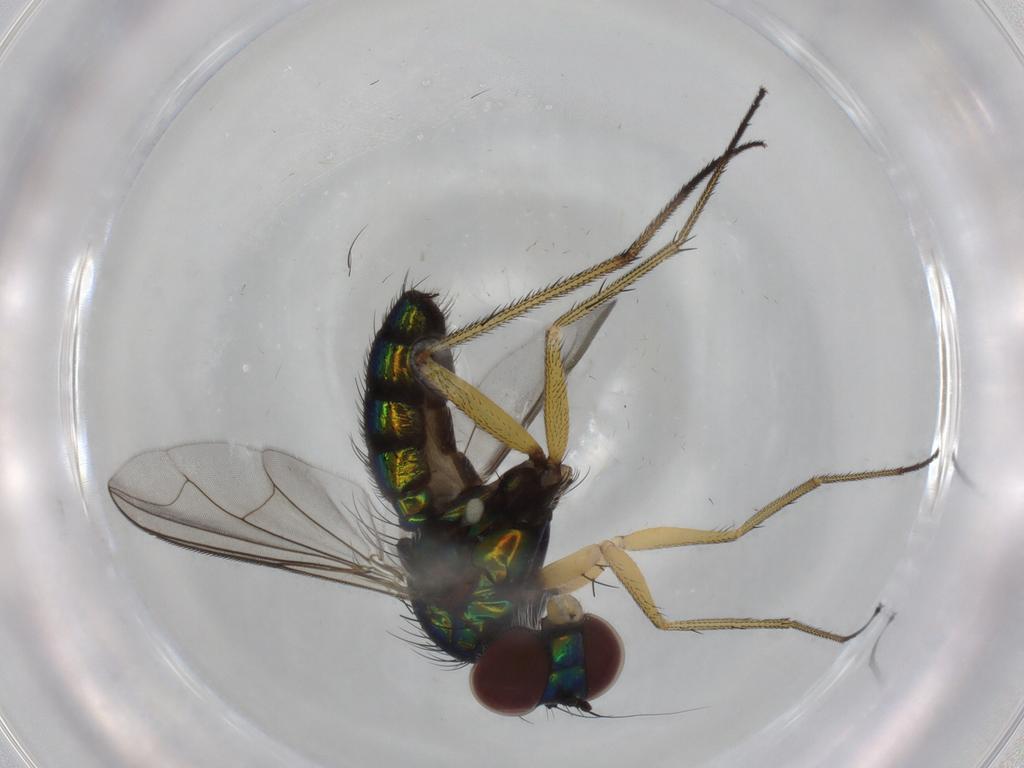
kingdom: Animalia
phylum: Arthropoda
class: Insecta
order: Diptera
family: Dolichopodidae
